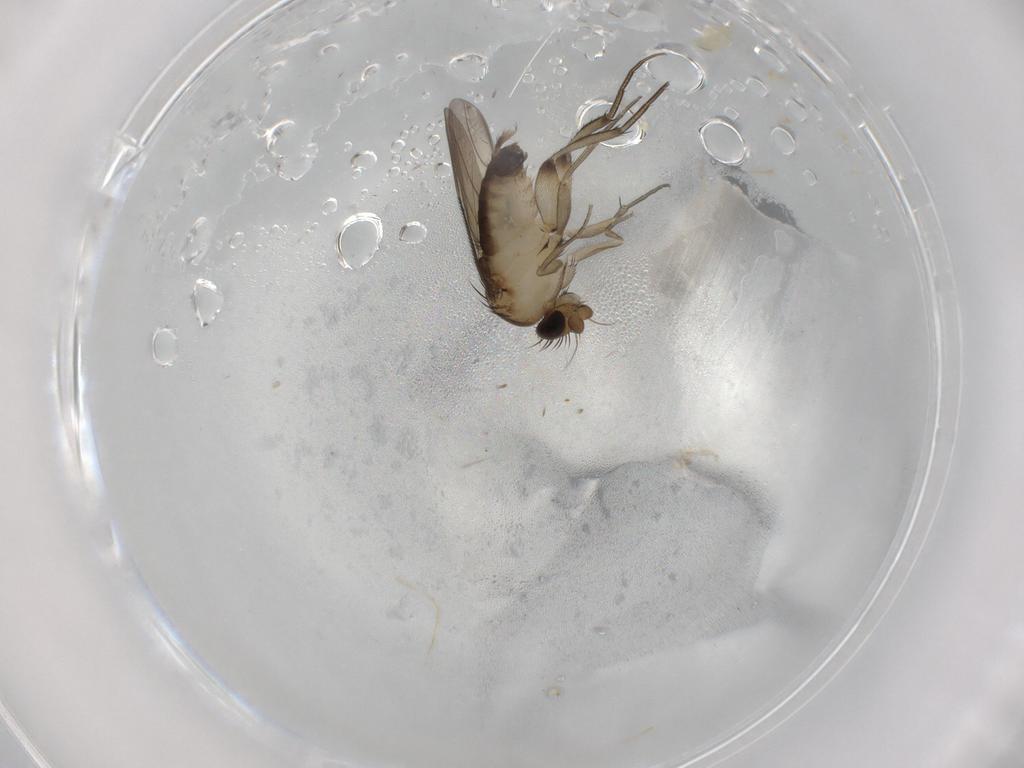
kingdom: Animalia
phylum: Arthropoda
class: Insecta
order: Diptera
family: Phoridae
